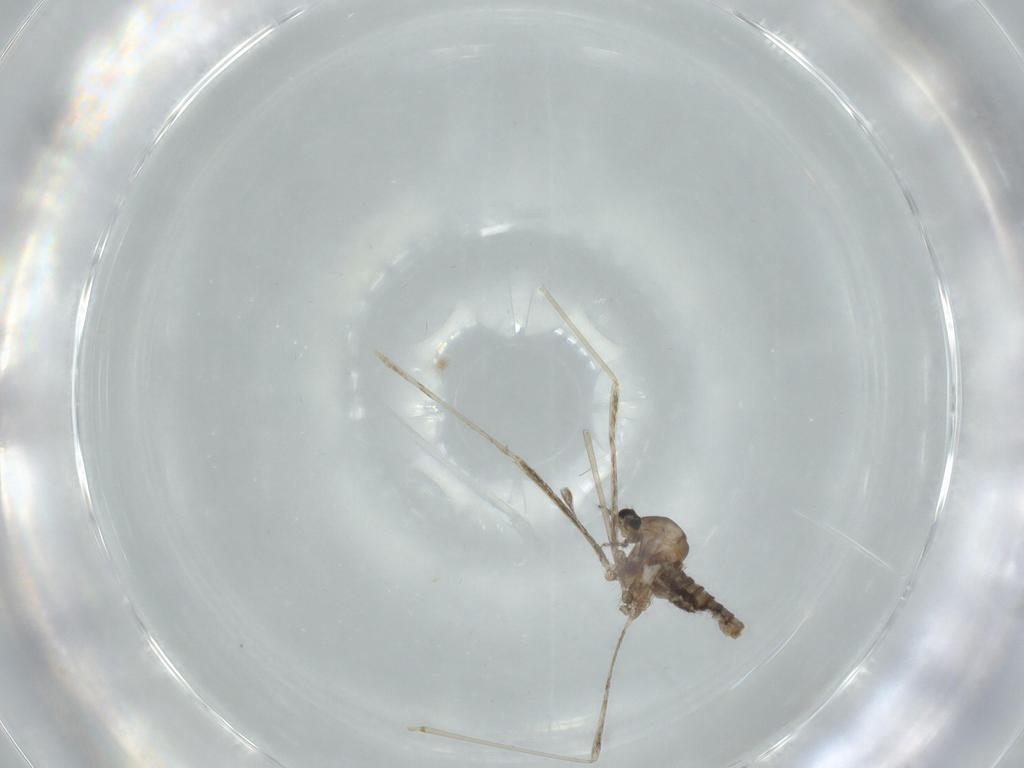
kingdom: Animalia
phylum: Arthropoda
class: Insecta
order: Diptera
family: Cecidomyiidae
